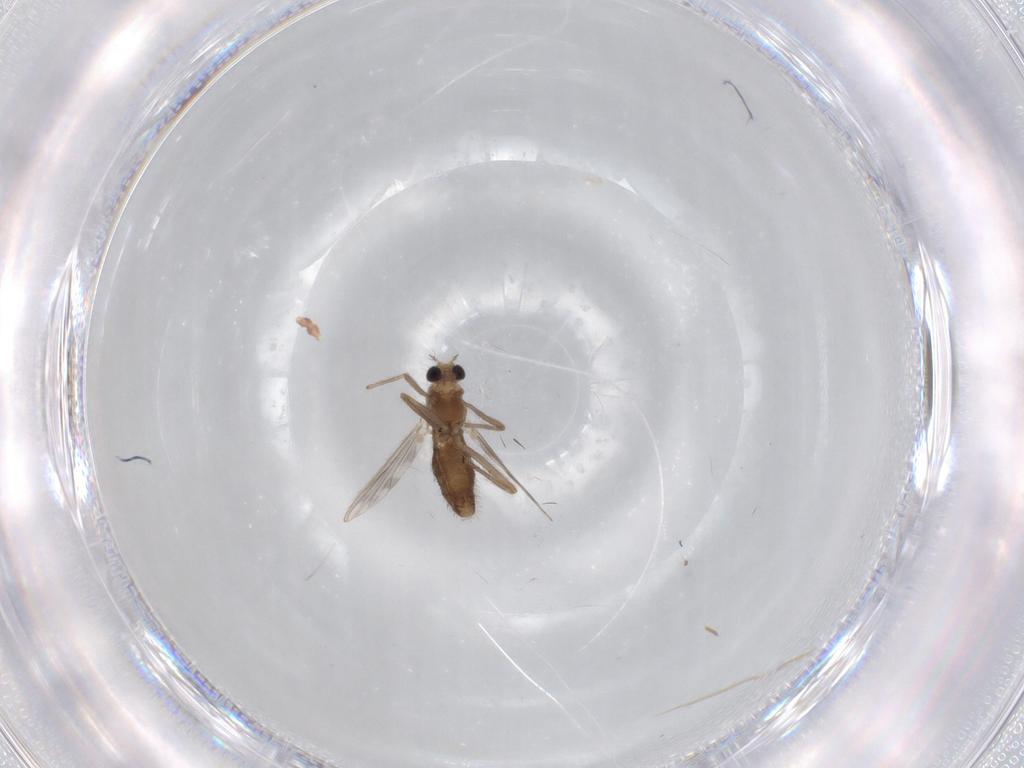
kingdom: Animalia
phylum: Arthropoda
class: Insecta
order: Diptera
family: Chironomidae
